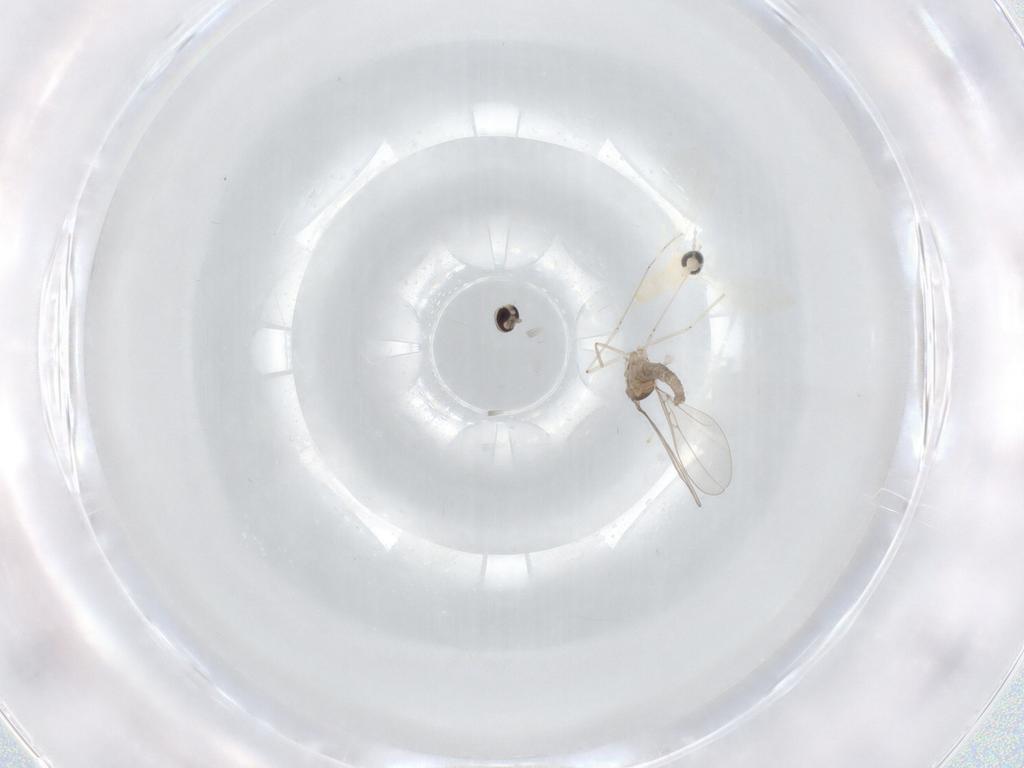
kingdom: Animalia
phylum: Arthropoda
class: Insecta
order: Diptera
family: Cecidomyiidae
